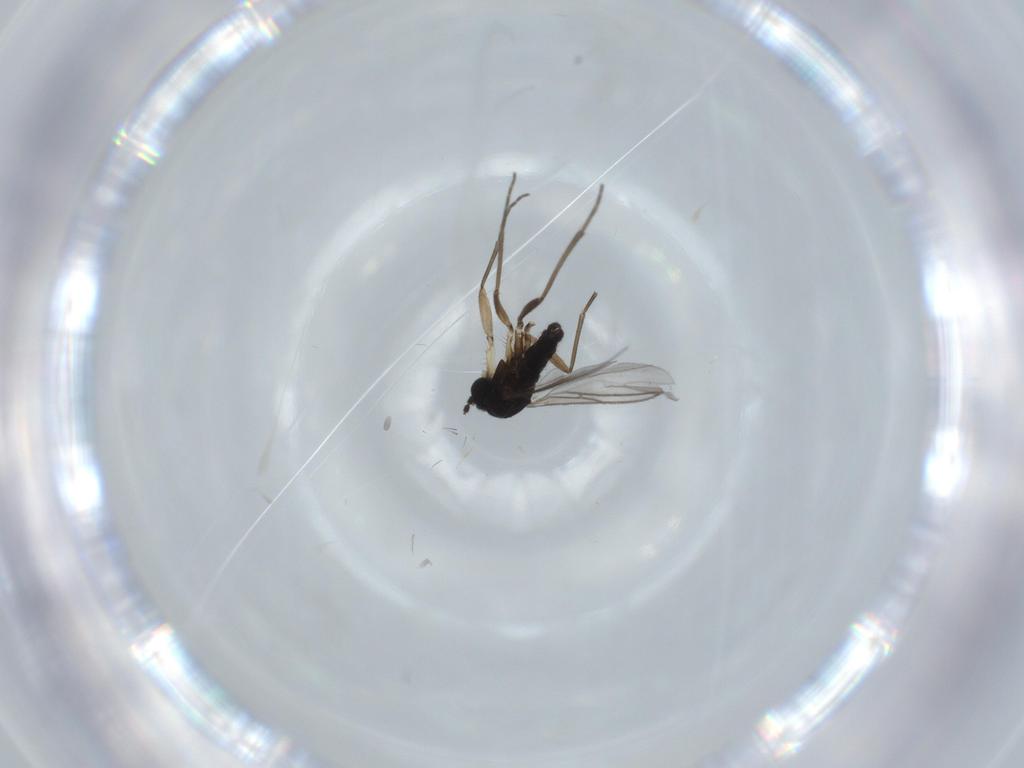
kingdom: Animalia
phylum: Arthropoda
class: Insecta
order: Diptera
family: Sciaridae
